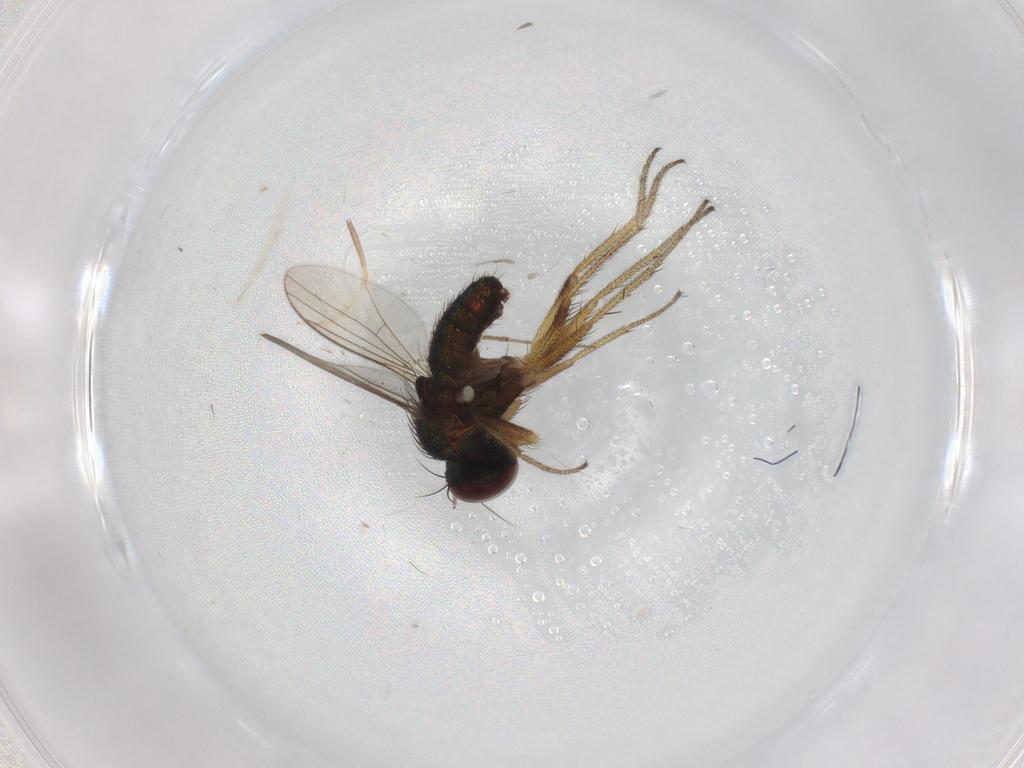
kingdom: Animalia
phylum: Arthropoda
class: Insecta
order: Diptera
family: Dolichopodidae
